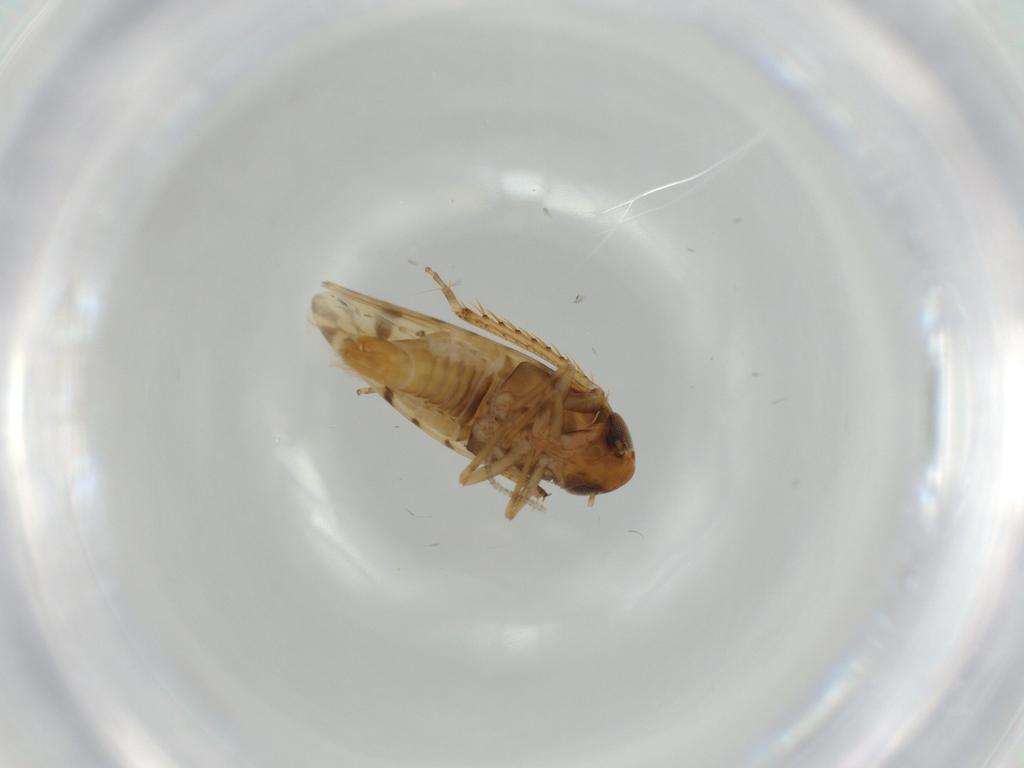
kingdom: Animalia
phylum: Arthropoda
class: Insecta
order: Hemiptera
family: Cicadellidae
